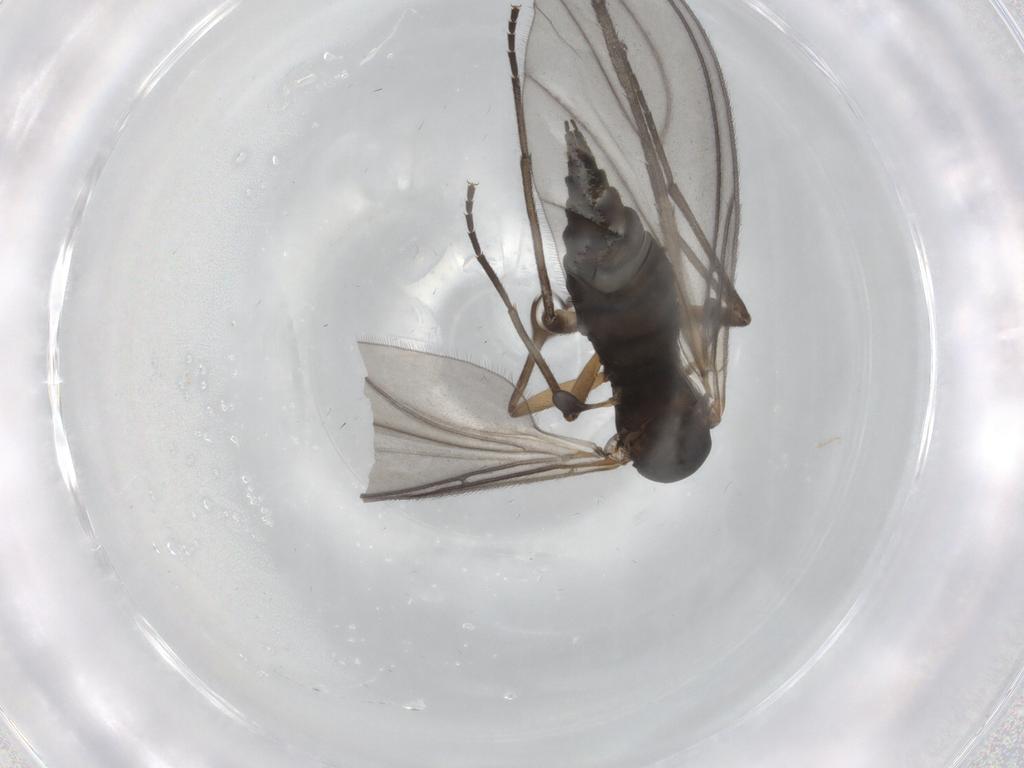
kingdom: Animalia
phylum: Arthropoda
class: Insecta
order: Diptera
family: Sciaridae
